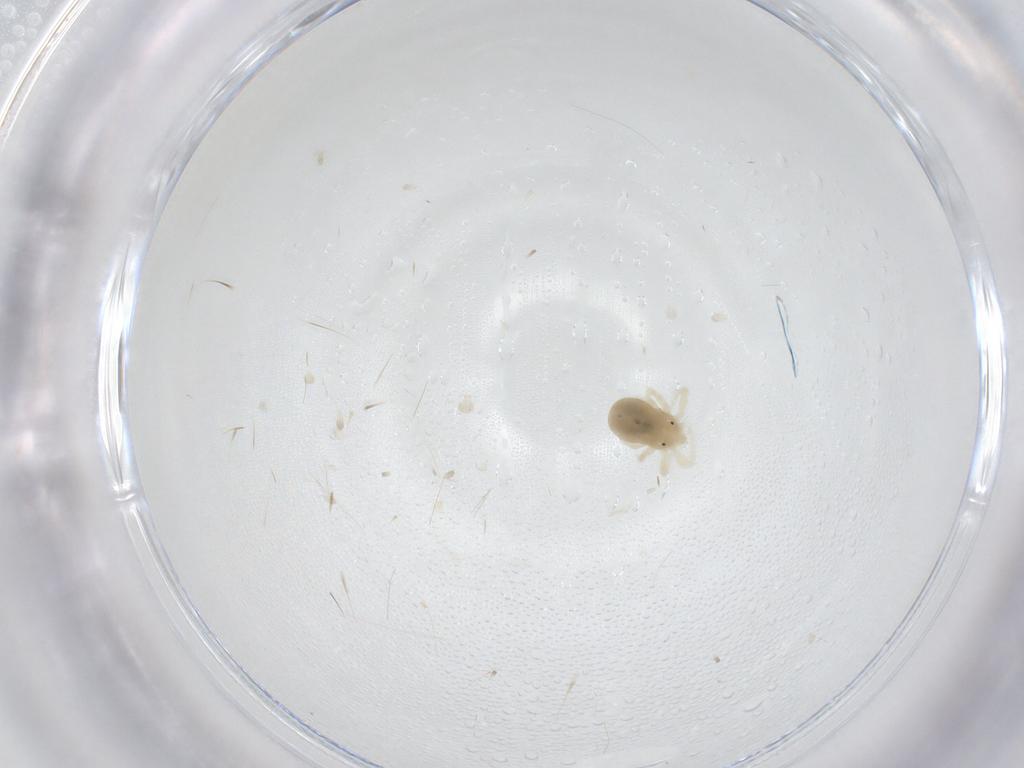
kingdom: Animalia
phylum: Arthropoda
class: Arachnida
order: Trombidiformes
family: Anystidae
